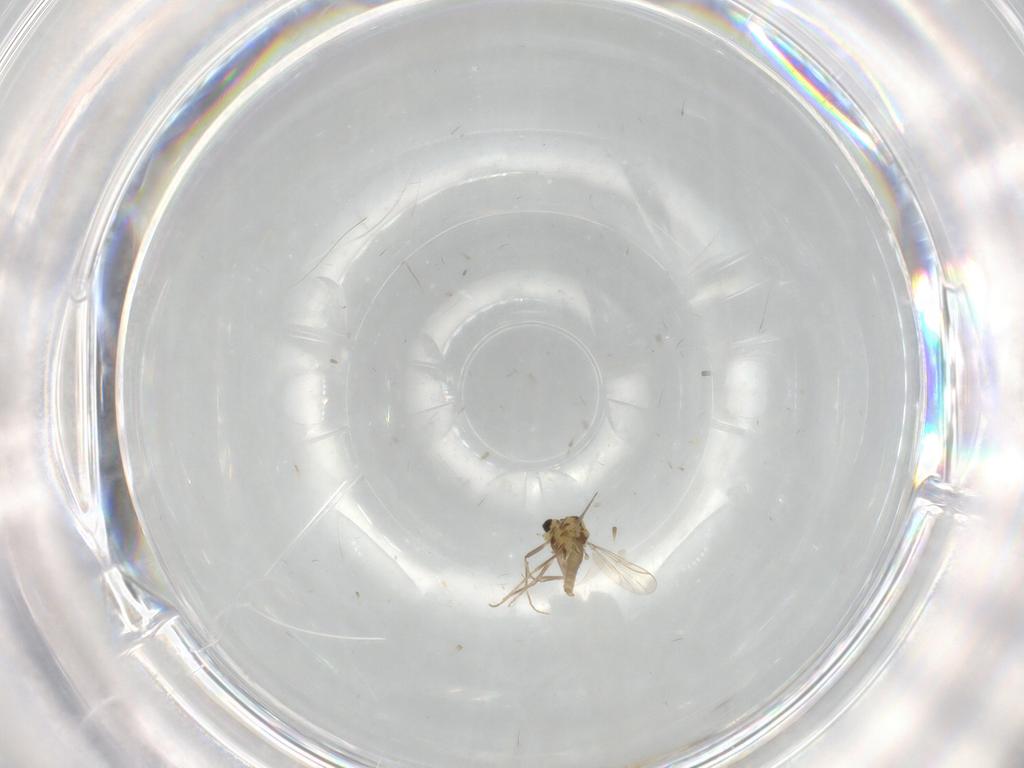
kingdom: Animalia
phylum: Arthropoda
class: Insecta
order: Diptera
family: Chironomidae
